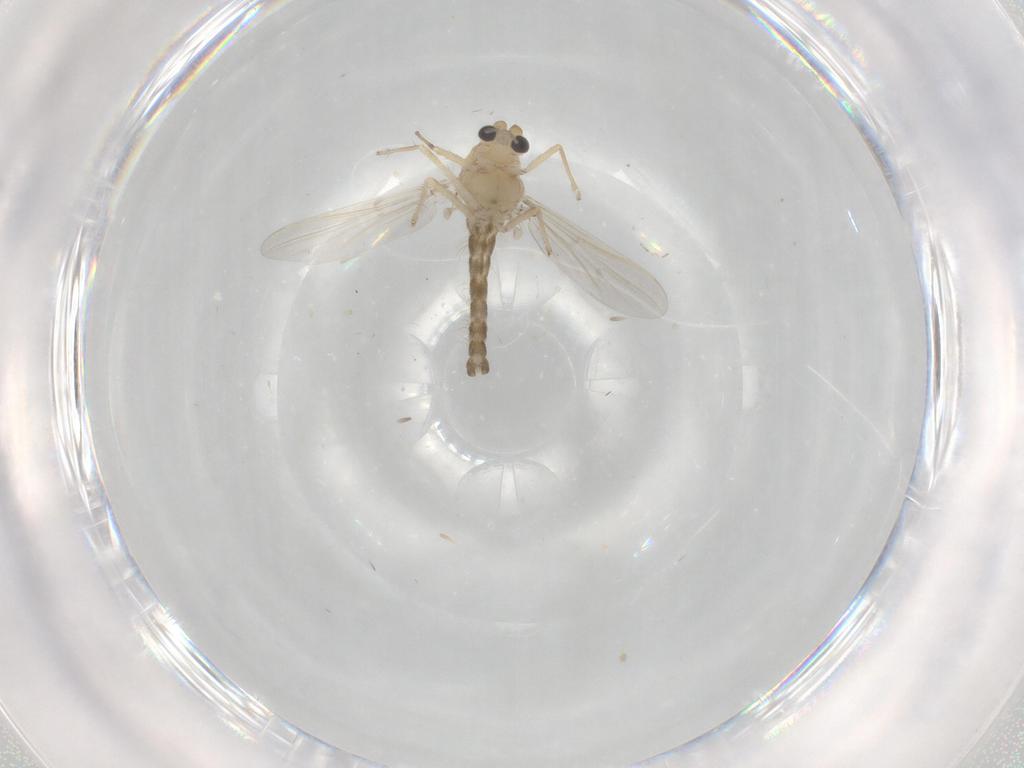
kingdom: Animalia
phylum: Arthropoda
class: Insecta
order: Diptera
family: Chironomidae
